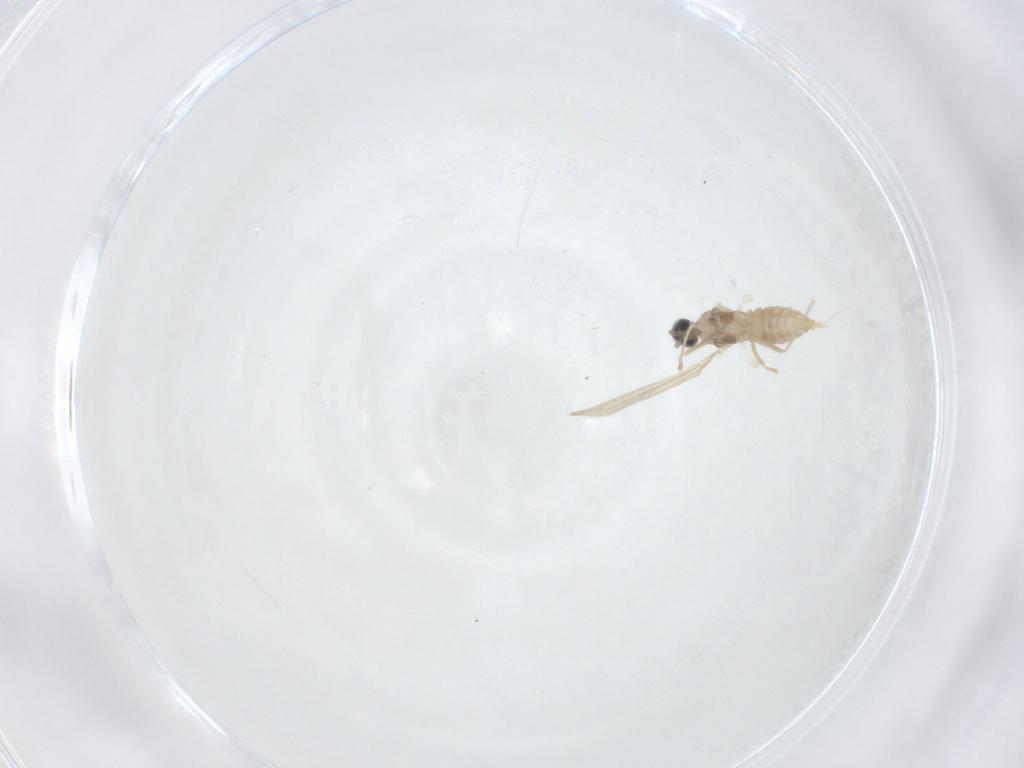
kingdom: Animalia
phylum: Arthropoda
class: Insecta
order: Diptera
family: Cecidomyiidae
